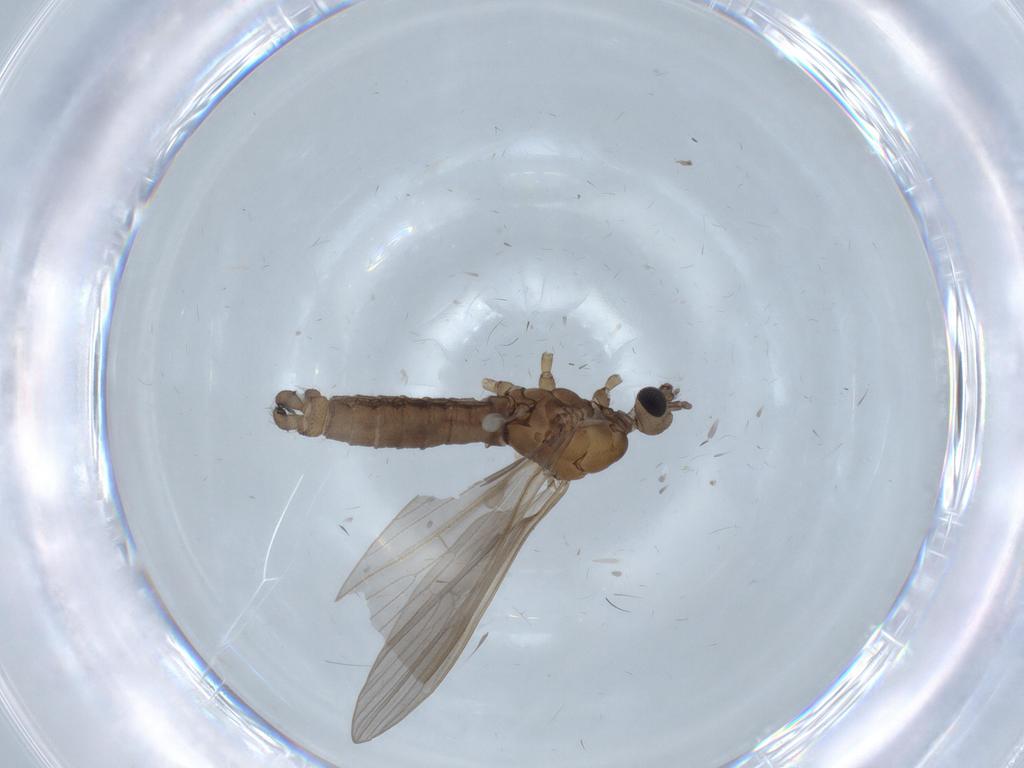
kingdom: Animalia
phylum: Arthropoda
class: Insecta
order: Diptera
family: Limoniidae
